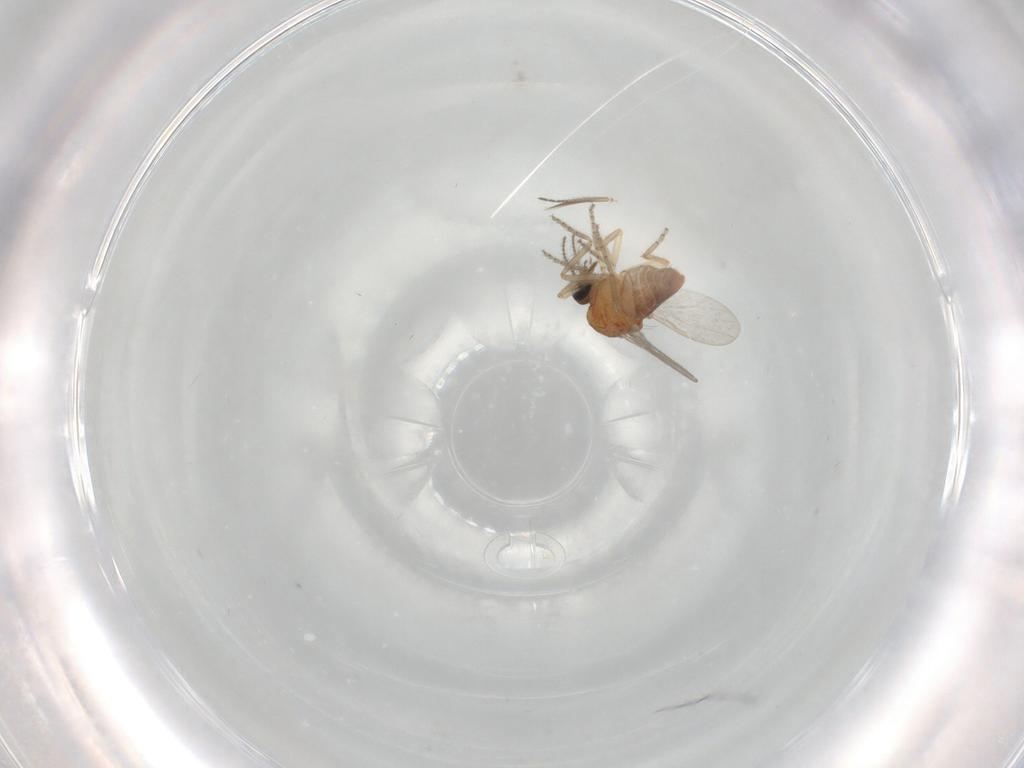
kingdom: Animalia
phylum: Arthropoda
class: Insecta
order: Diptera
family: Ceratopogonidae
